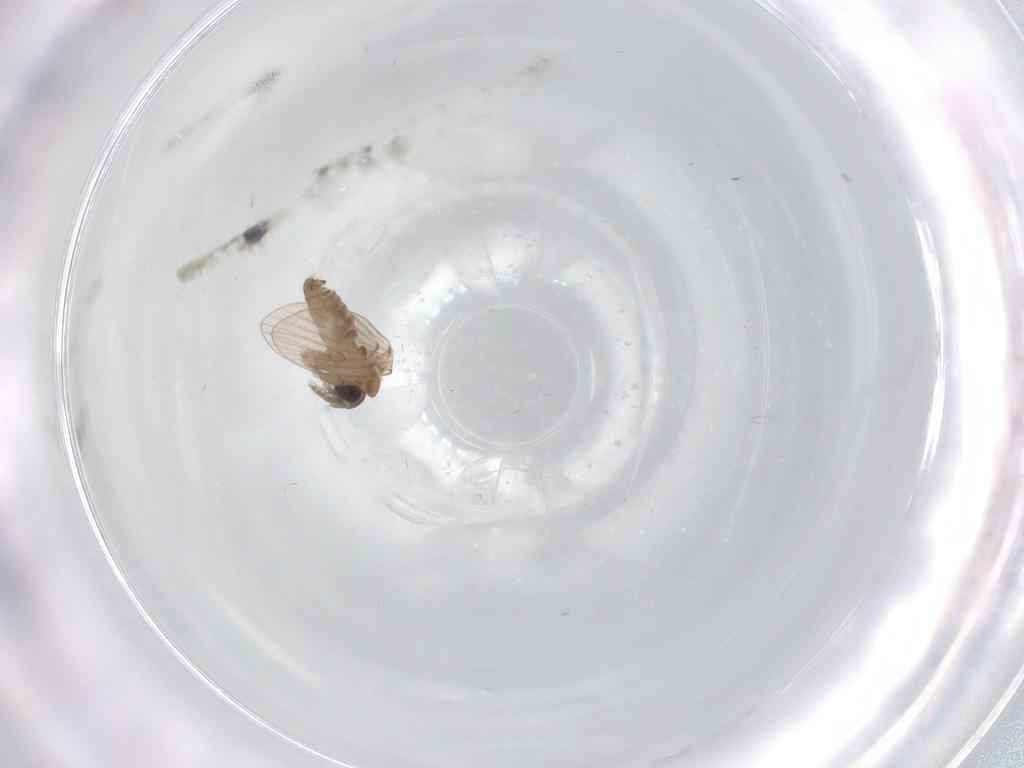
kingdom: Animalia
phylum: Arthropoda
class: Insecta
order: Diptera
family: Psychodidae
